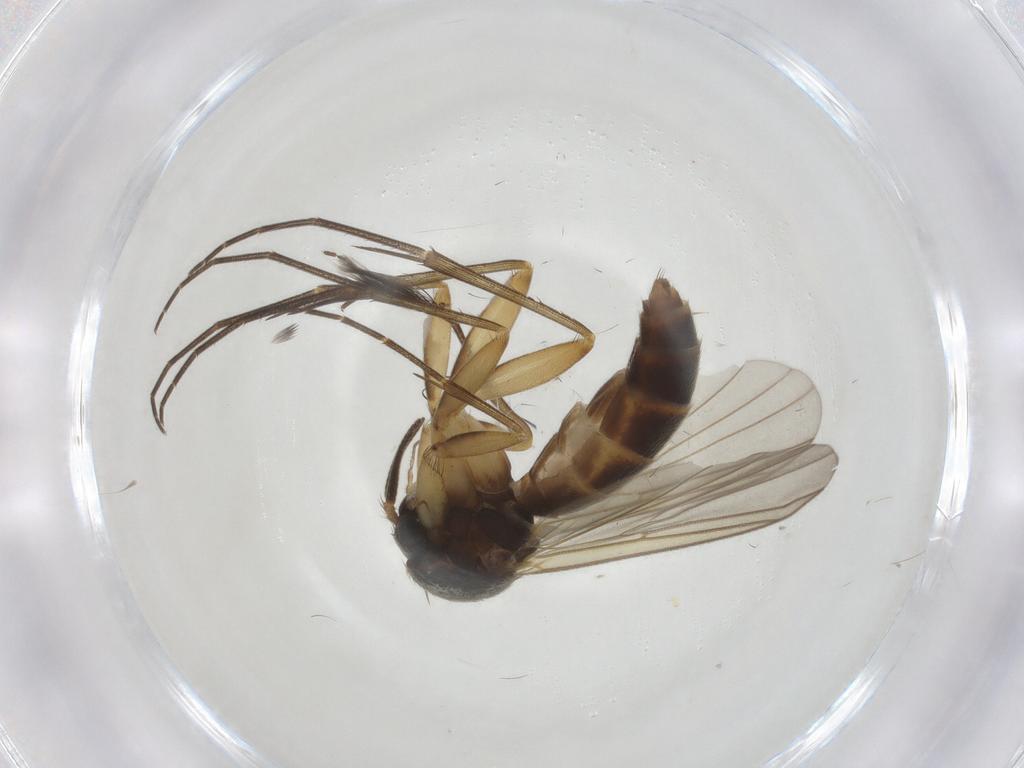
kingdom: Animalia
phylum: Arthropoda
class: Insecta
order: Diptera
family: Ceratopogonidae
